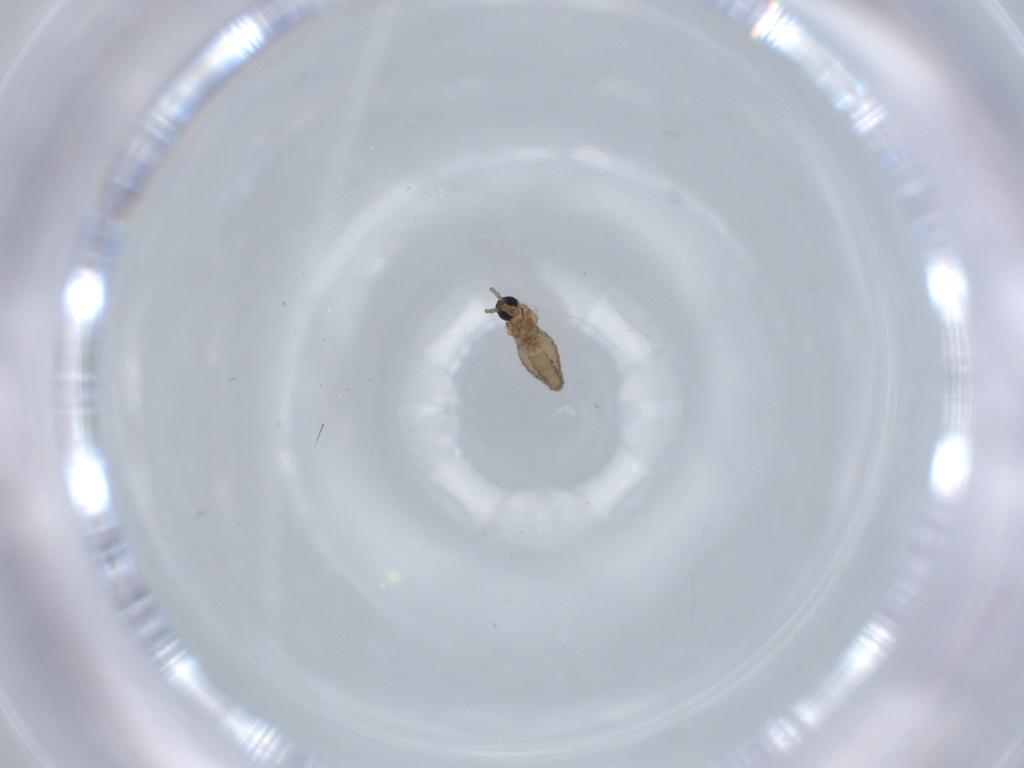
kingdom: Animalia
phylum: Arthropoda
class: Insecta
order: Diptera
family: Cecidomyiidae
